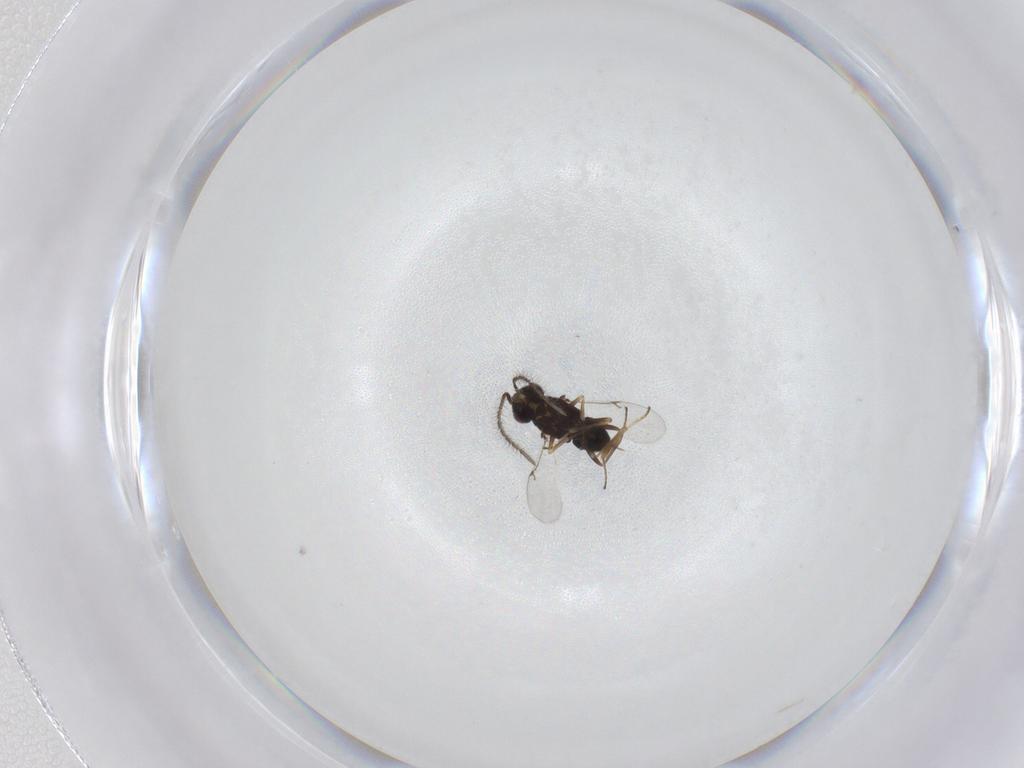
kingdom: Animalia
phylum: Arthropoda
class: Insecta
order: Hymenoptera
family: Encyrtidae
